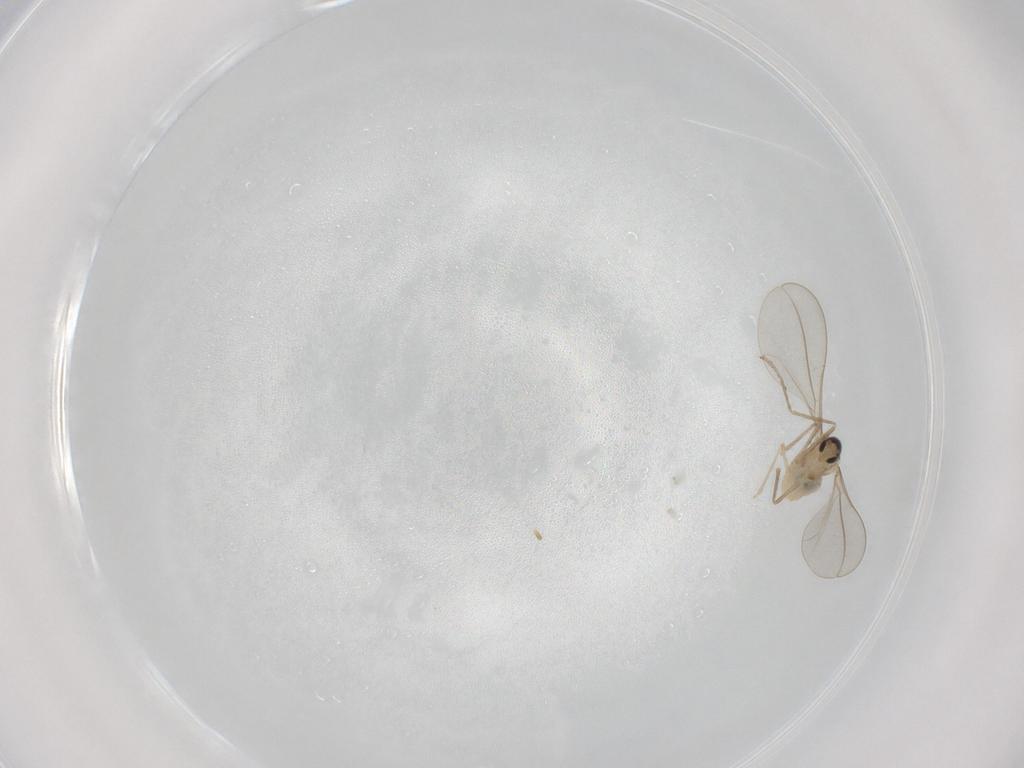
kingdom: Animalia
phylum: Arthropoda
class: Insecta
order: Diptera
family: Cecidomyiidae
